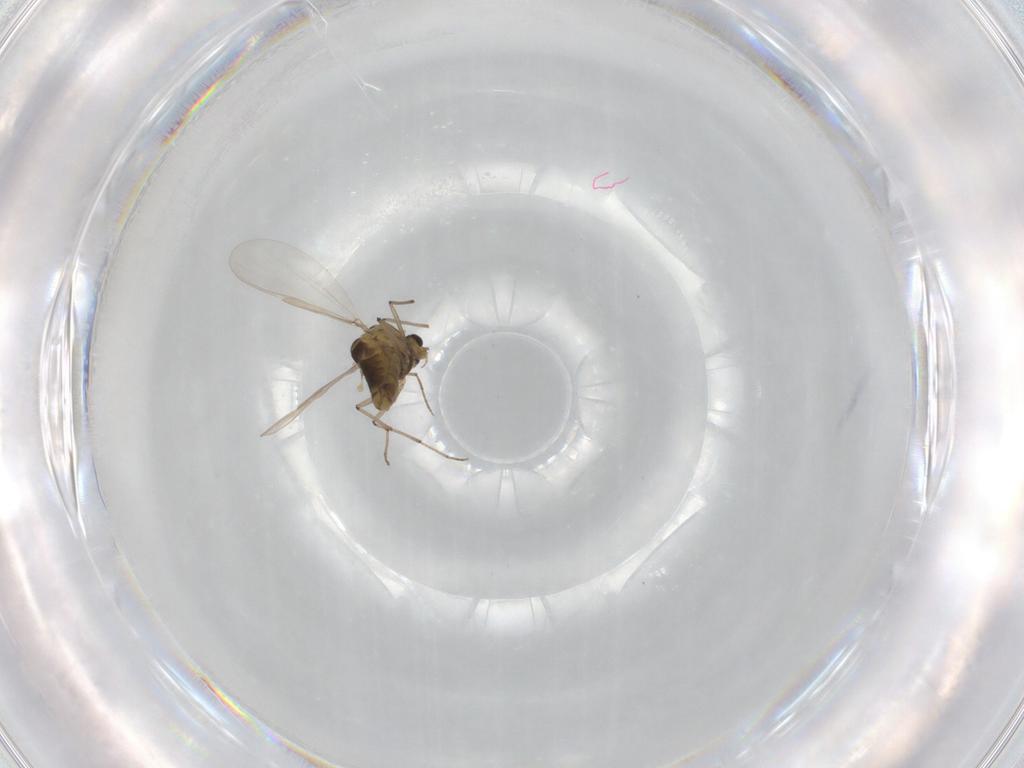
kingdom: Animalia
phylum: Arthropoda
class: Insecta
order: Diptera
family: Chironomidae
